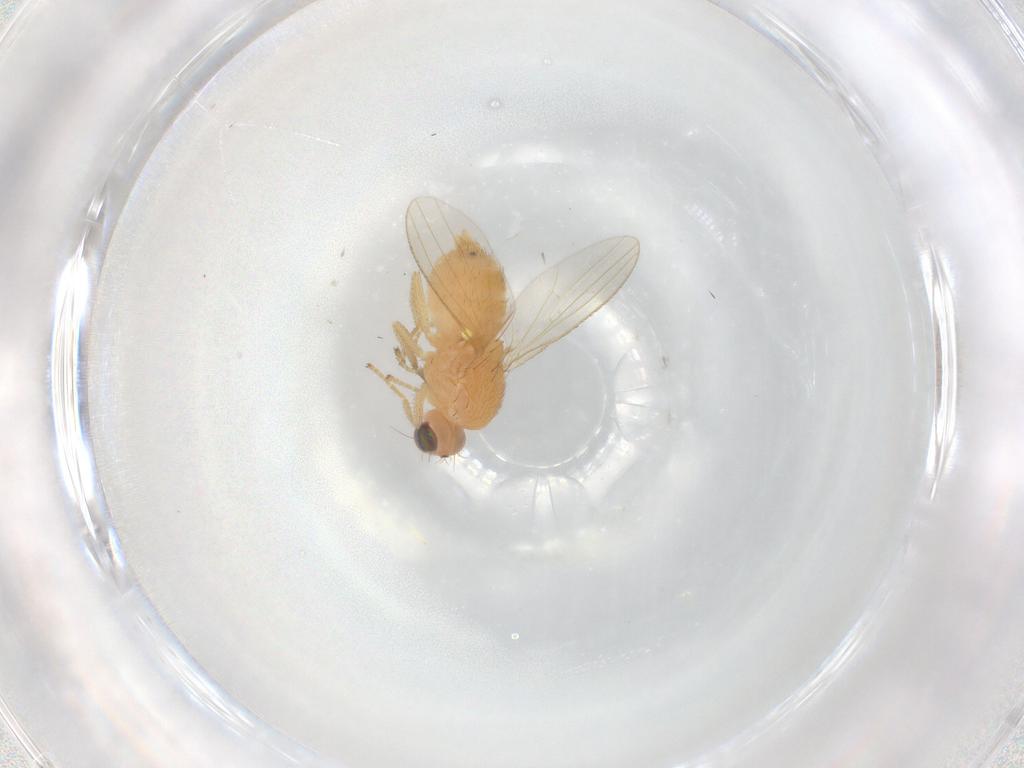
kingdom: Animalia
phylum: Arthropoda
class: Insecta
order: Diptera
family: Chyromyidae
